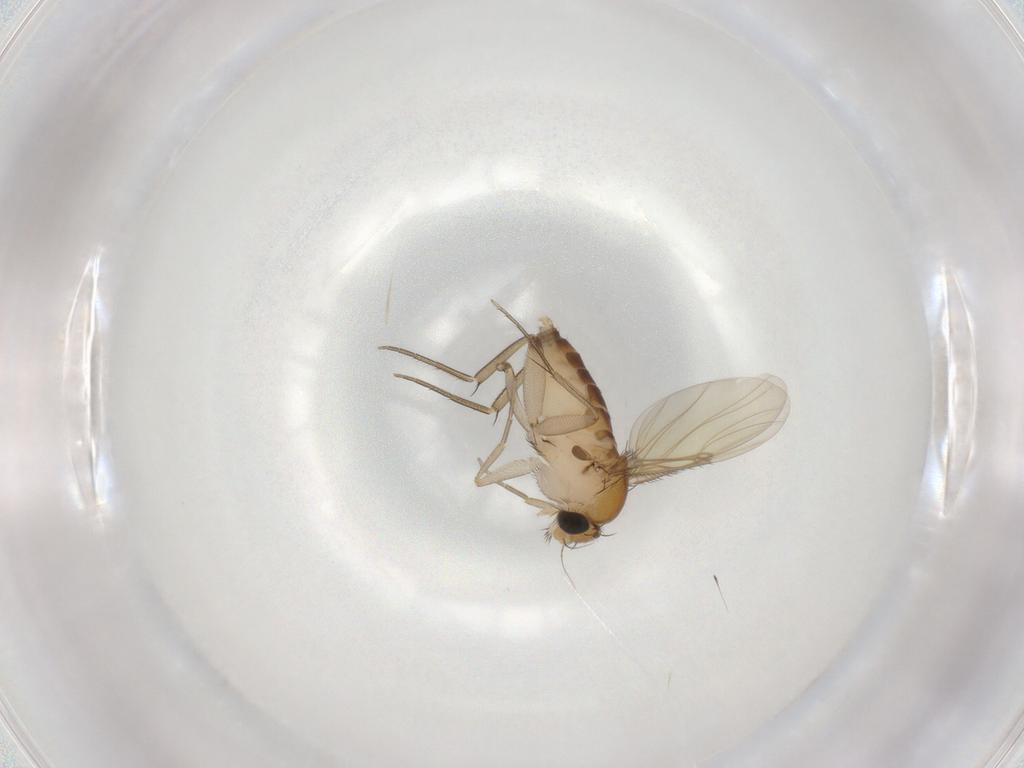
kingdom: Animalia
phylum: Arthropoda
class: Insecta
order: Diptera
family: Phoridae
